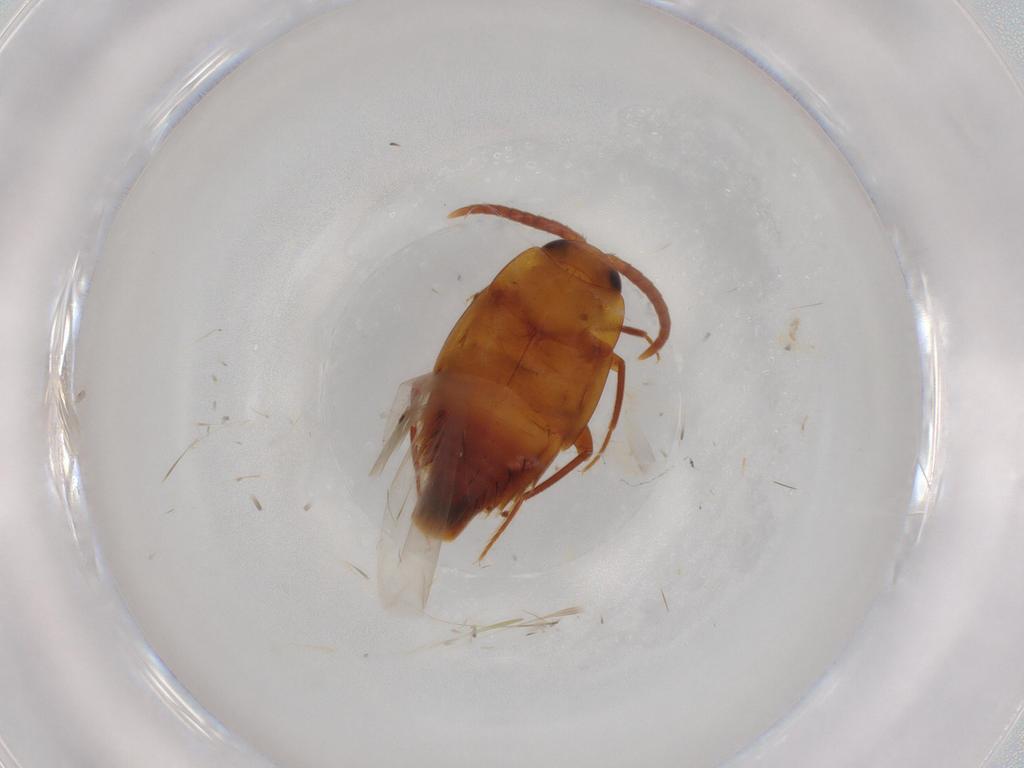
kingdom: Animalia
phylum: Arthropoda
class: Insecta
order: Coleoptera
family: Staphylinidae
